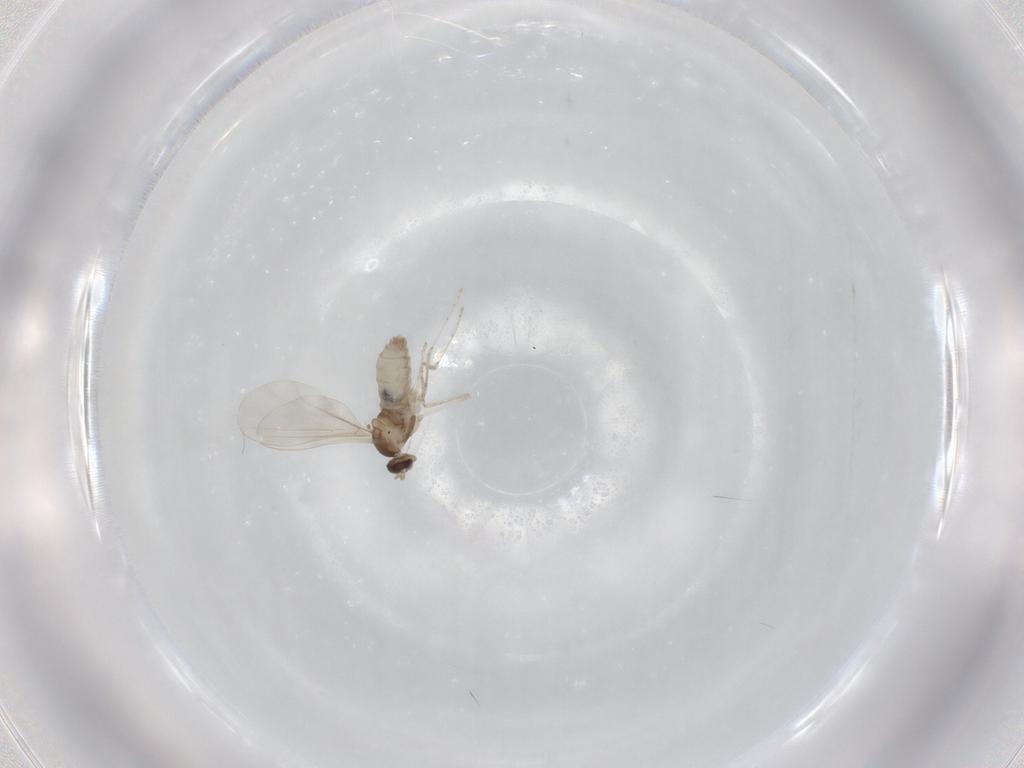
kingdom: Animalia
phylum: Arthropoda
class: Insecta
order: Diptera
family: Cecidomyiidae
